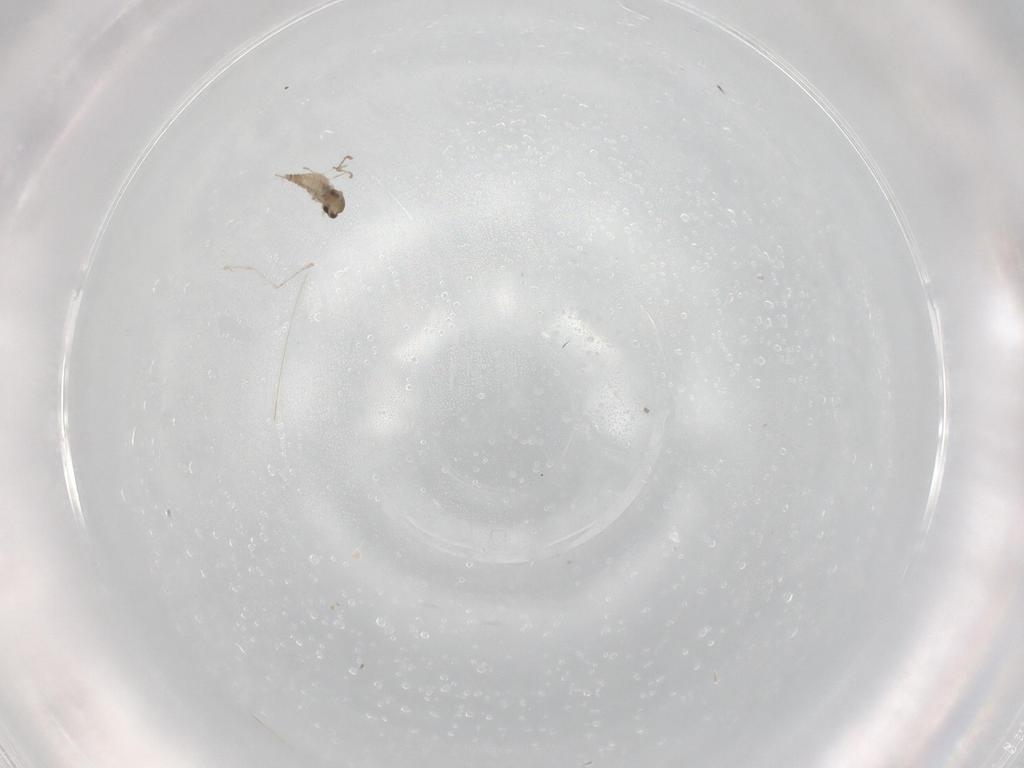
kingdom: Animalia
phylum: Arthropoda
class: Insecta
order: Diptera
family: Cecidomyiidae
